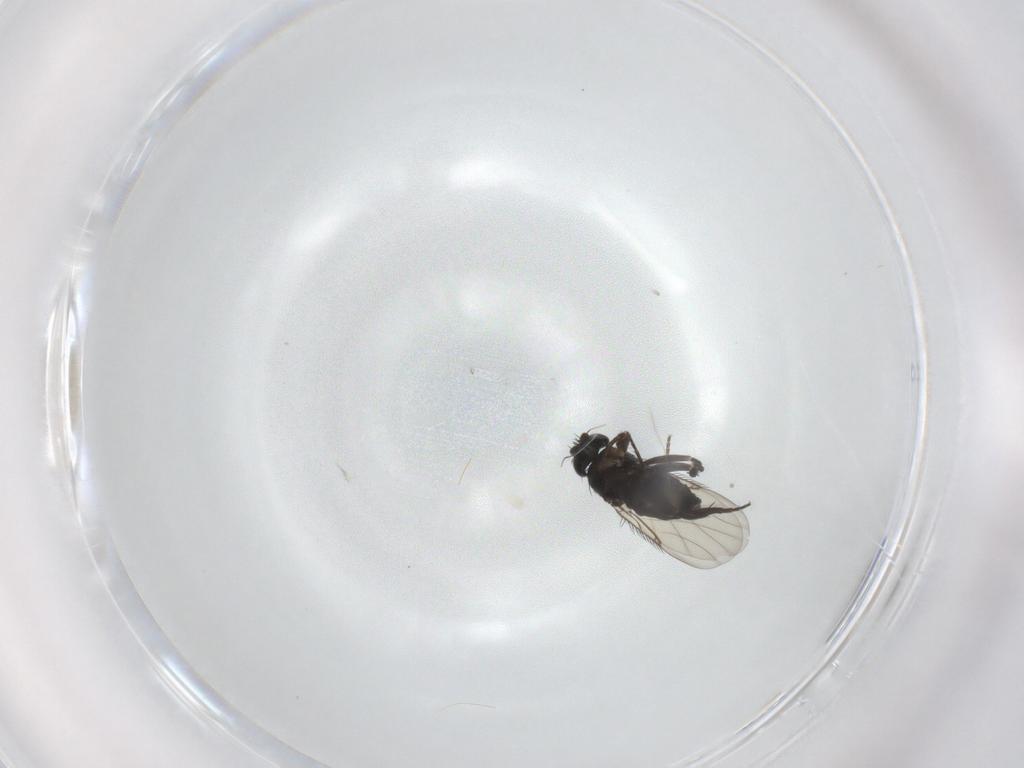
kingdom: Animalia
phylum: Arthropoda
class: Insecta
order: Diptera
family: Phoridae
